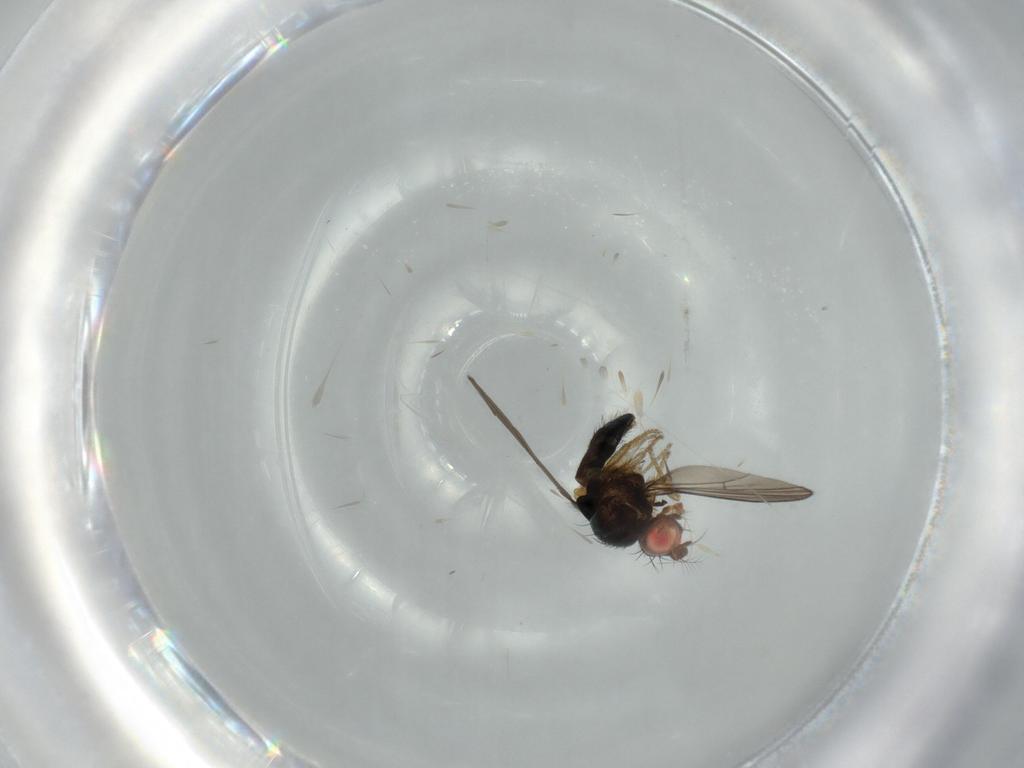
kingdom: Animalia
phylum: Arthropoda
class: Insecta
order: Diptera
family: Drosophilidae
